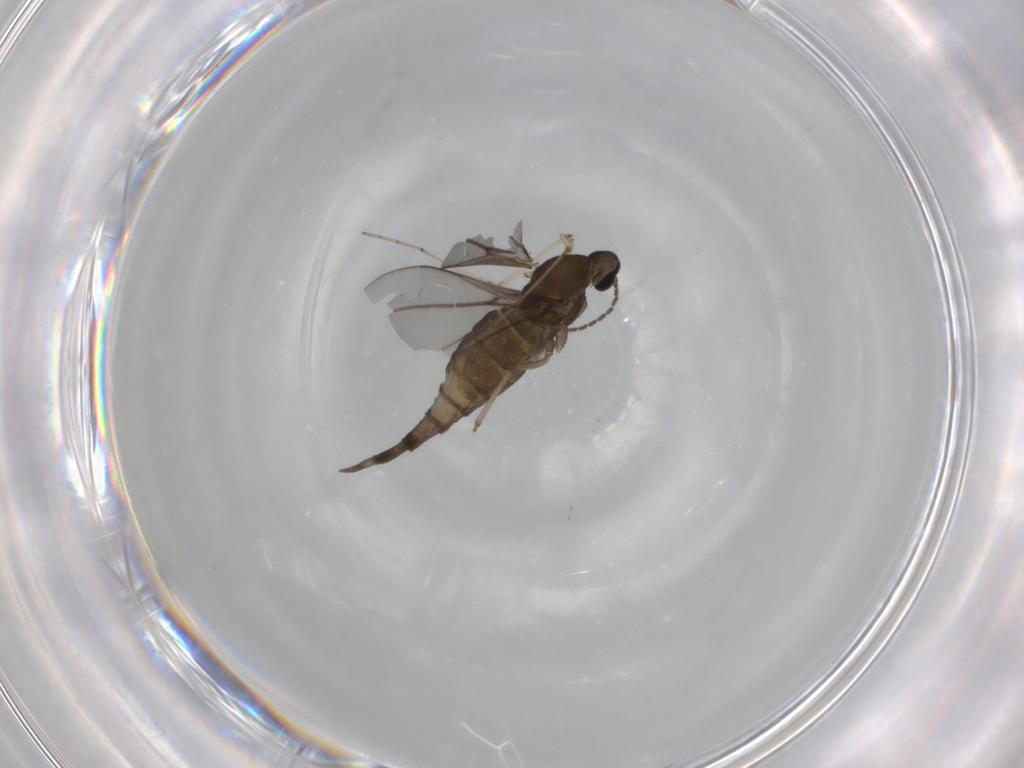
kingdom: Animalia
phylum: Arthropoda
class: Insecta
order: Diptera
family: Cecidomyiidae
